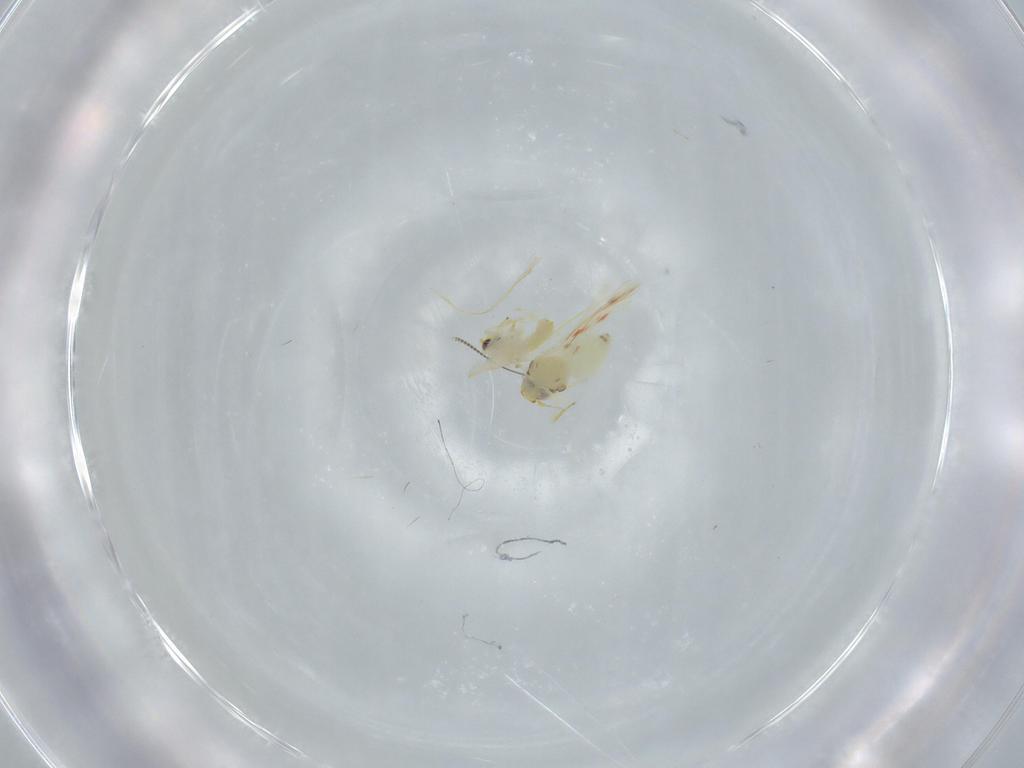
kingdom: Animalia
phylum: Arthropoda
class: Insecta
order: Hemiptera
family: Aleyrodidae
